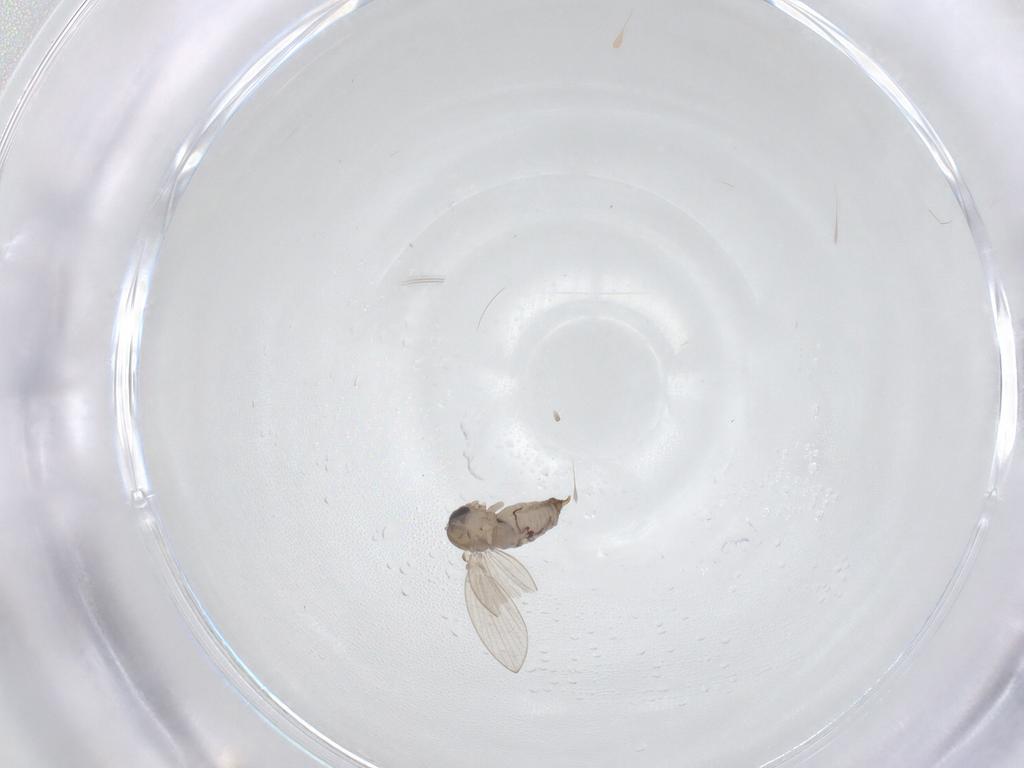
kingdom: Animalia
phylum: Arthropoda
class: Insecta
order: Diptera
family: Psychodidae
